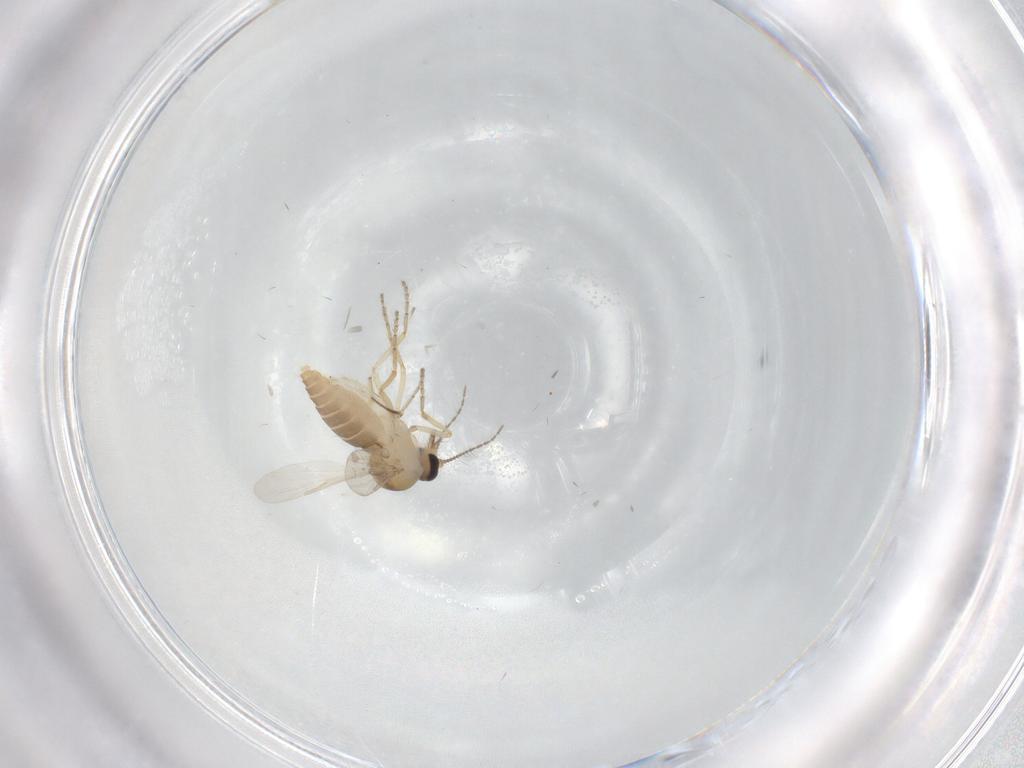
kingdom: Animalia
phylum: Arthropoda
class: Insecta
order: Diptera
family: Ceratopogonidae
